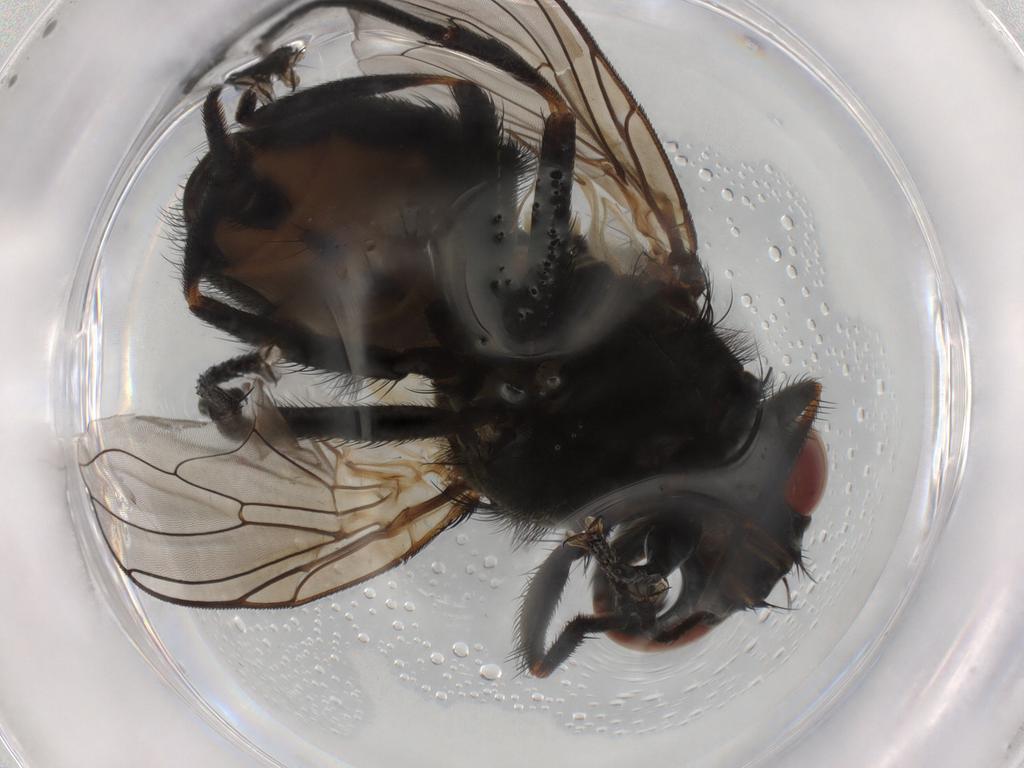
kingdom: Animalia
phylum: Arthropoda
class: Insecta
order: Diptera
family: Muscidae
